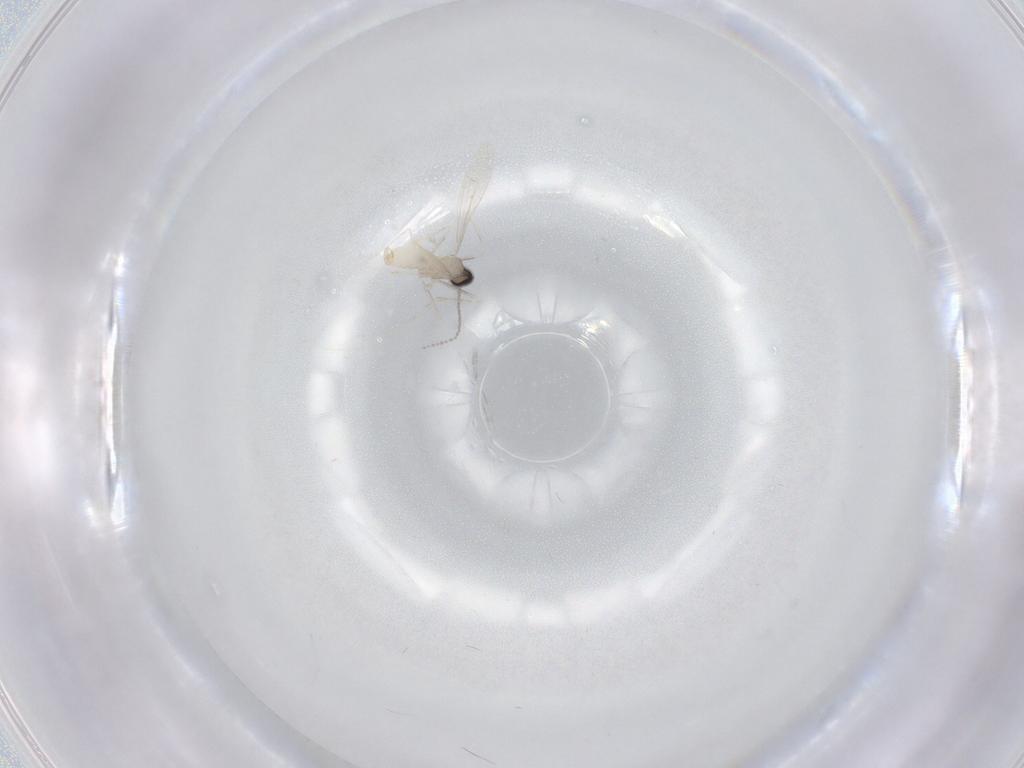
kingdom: Animalia
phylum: Arthropoda
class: Insecta
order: Diptera
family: Cecidomyiidae
